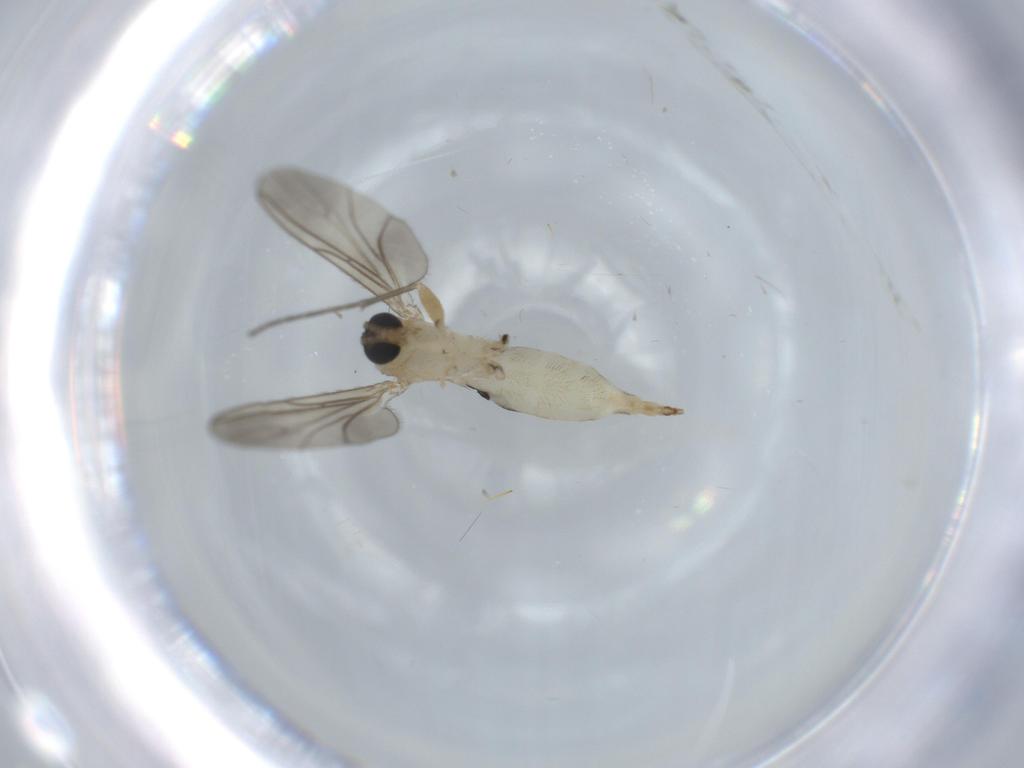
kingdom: Animalia
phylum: Arthropoda
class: Insecta
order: Diptera
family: Sciaridae
